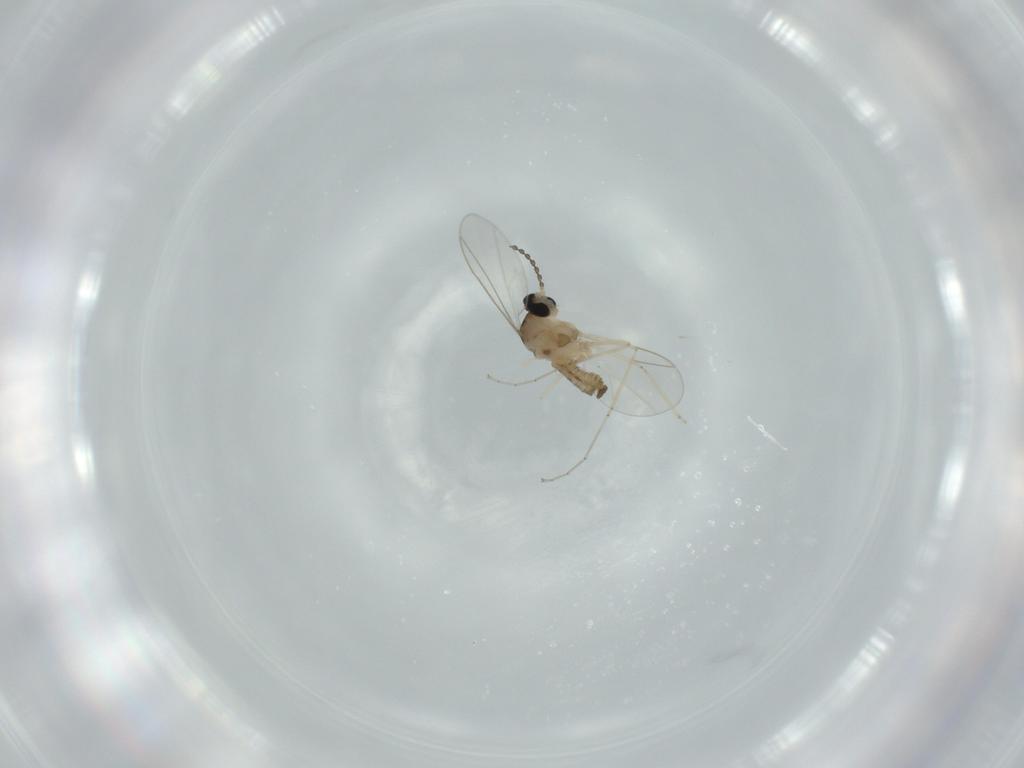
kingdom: Animalia
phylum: Arthropoda
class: Insecta
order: Diptera
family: Cecidomyiidae
